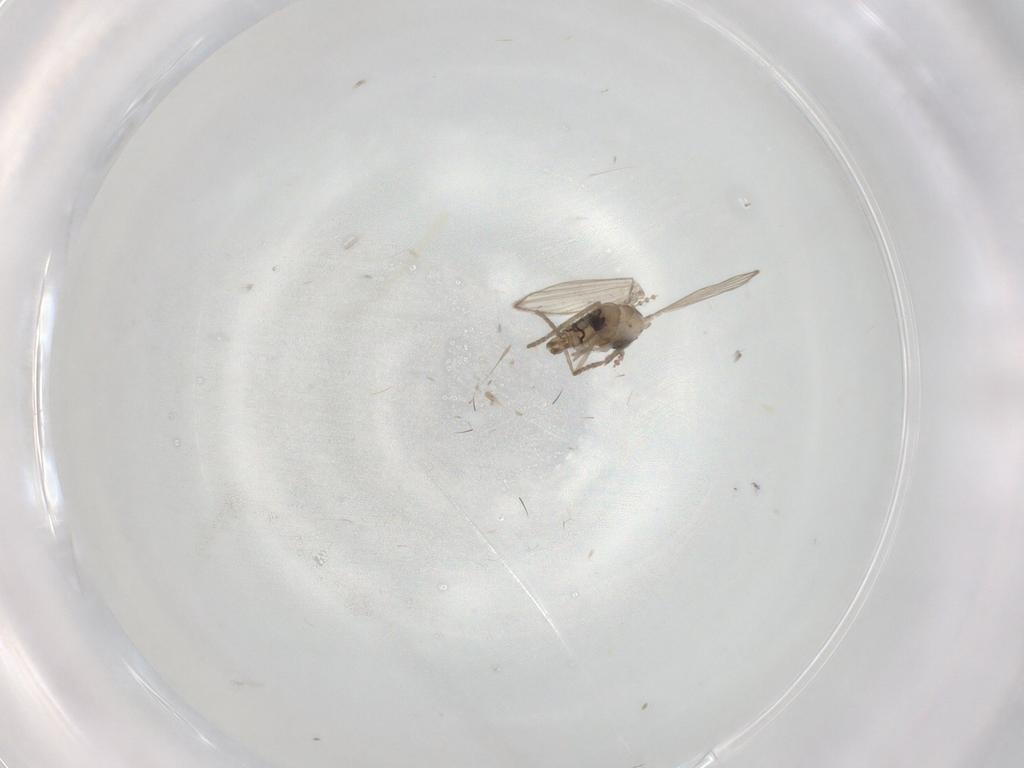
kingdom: Animalia
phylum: Arthropoda
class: Insecta
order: Diptera
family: Psychodidae
